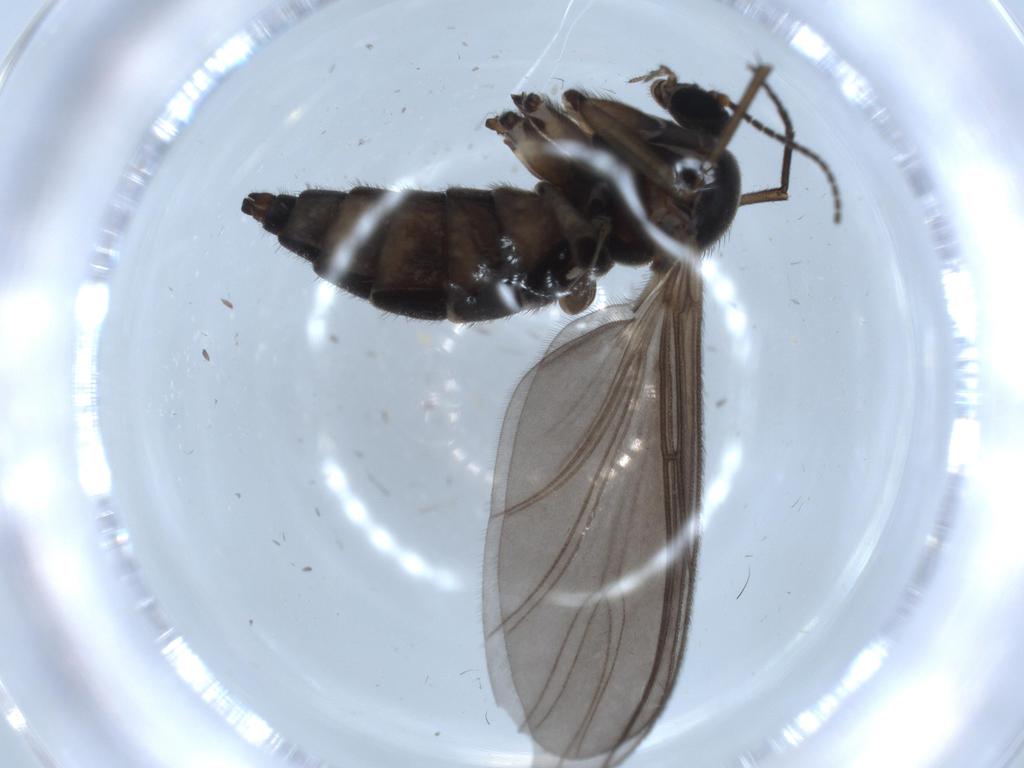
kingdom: Animalia
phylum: Arthropoda
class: Insecta
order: Diptera
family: Sciaridae
